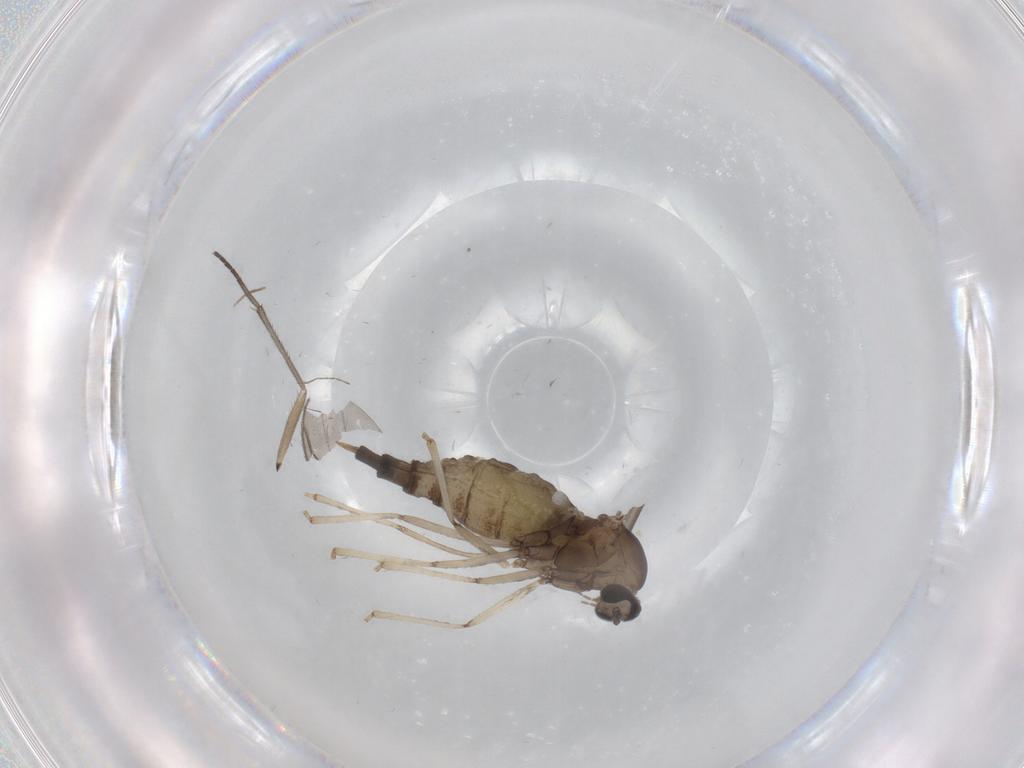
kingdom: Animalia
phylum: Arthropoda
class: Insecta
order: Diptera
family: Cecidomyiidae
